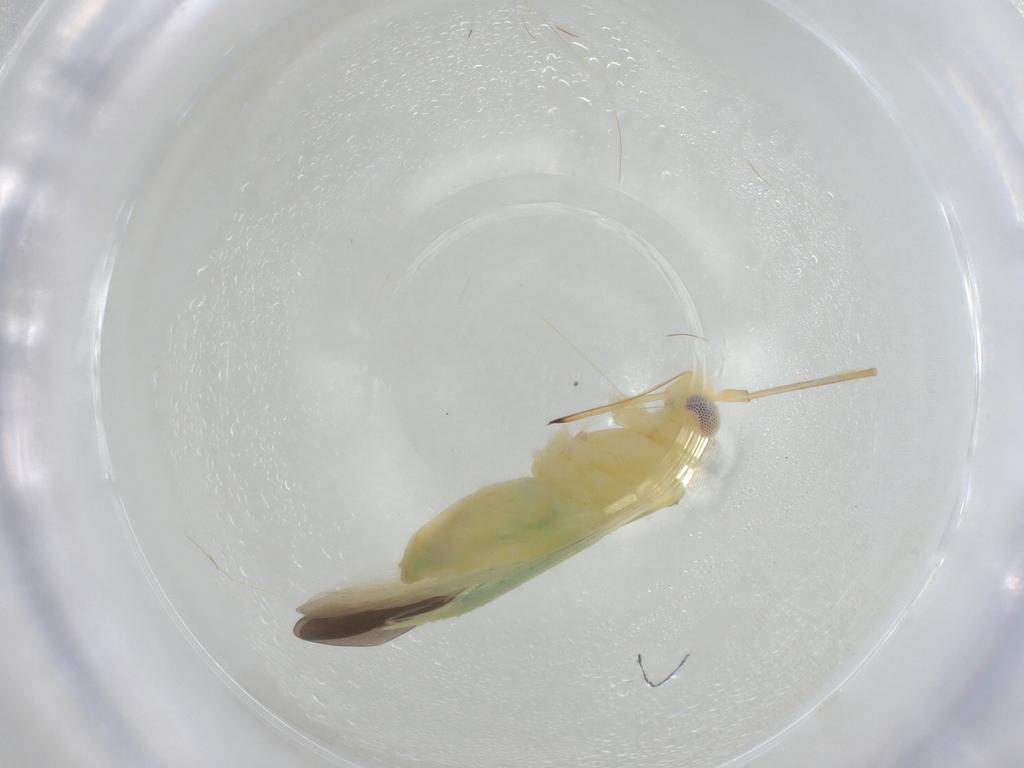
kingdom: Animalia
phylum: Arthropoda
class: Insecta
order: Hemiptera
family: Miridae
